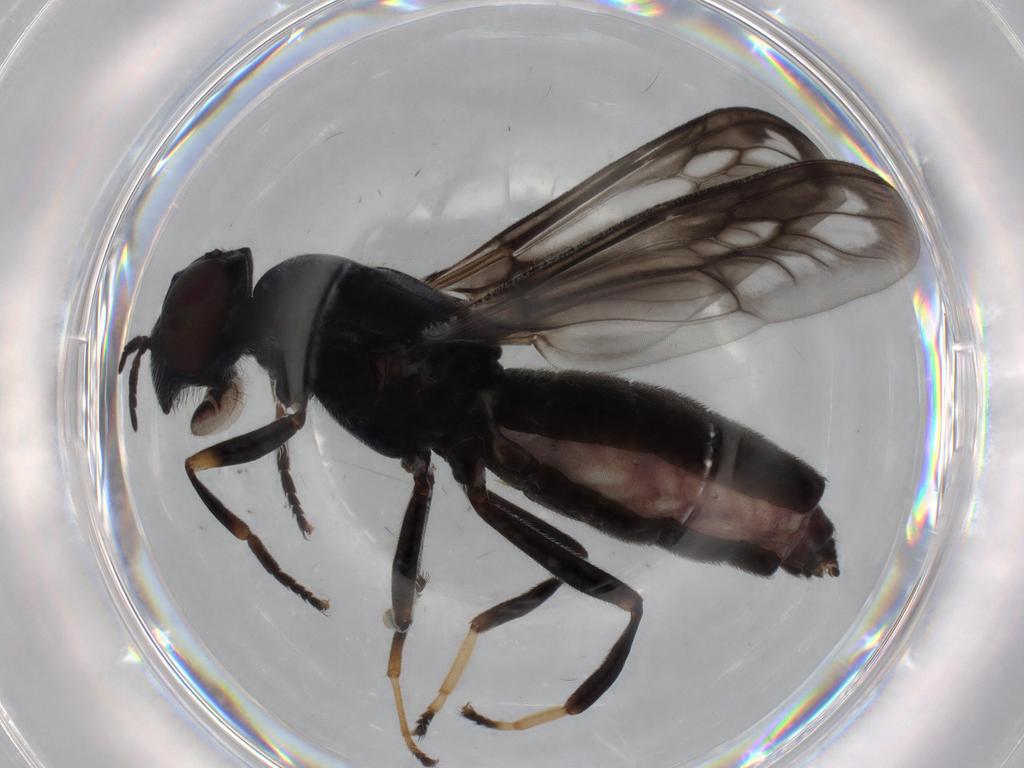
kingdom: Animalia
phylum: Arthropoda
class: Insecta
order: Diptera
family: Stratiomyidae
